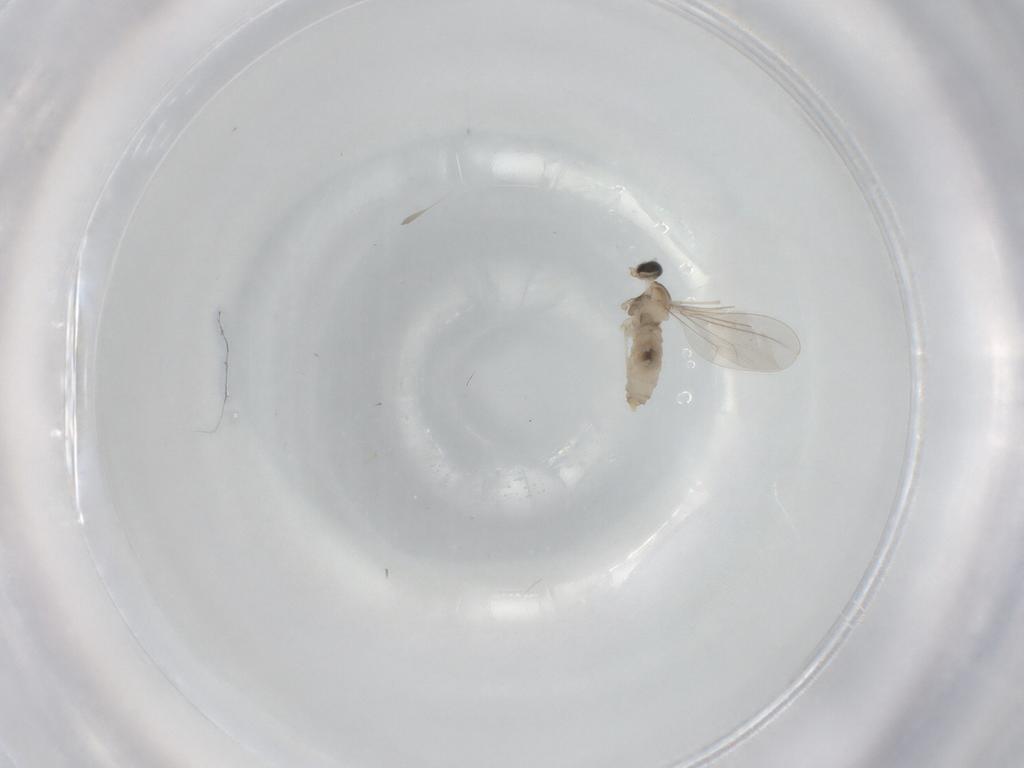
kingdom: Animalia
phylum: Arthropoda
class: Insecta
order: Diptera
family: Cecidomyiidae
